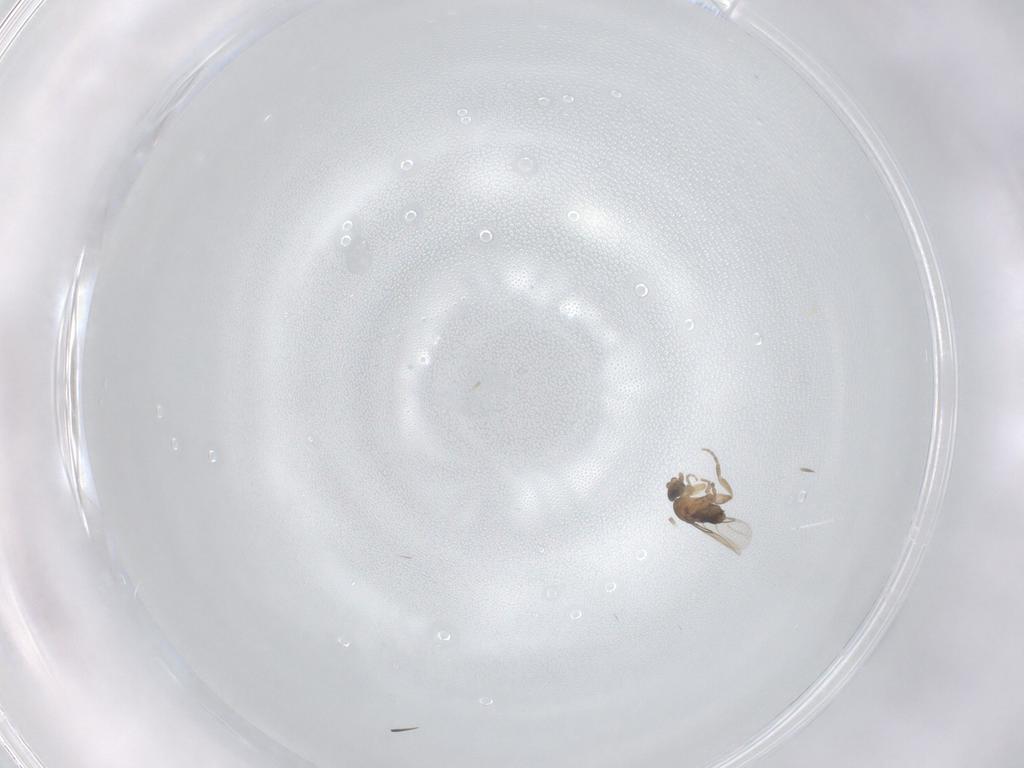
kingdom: Animalia
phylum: Arthropoda
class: Insecta
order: Diptera
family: Phoridae
